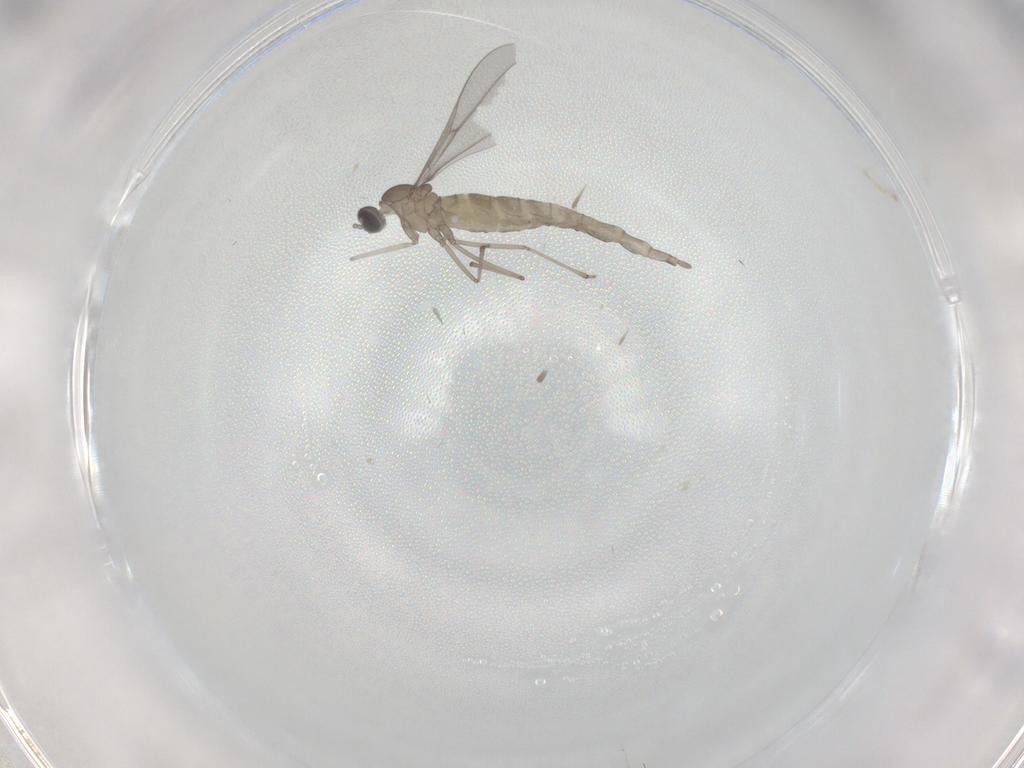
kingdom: Animalia
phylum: Arthropoda
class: Insecta
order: Diptera
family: Cecidomyiidae
